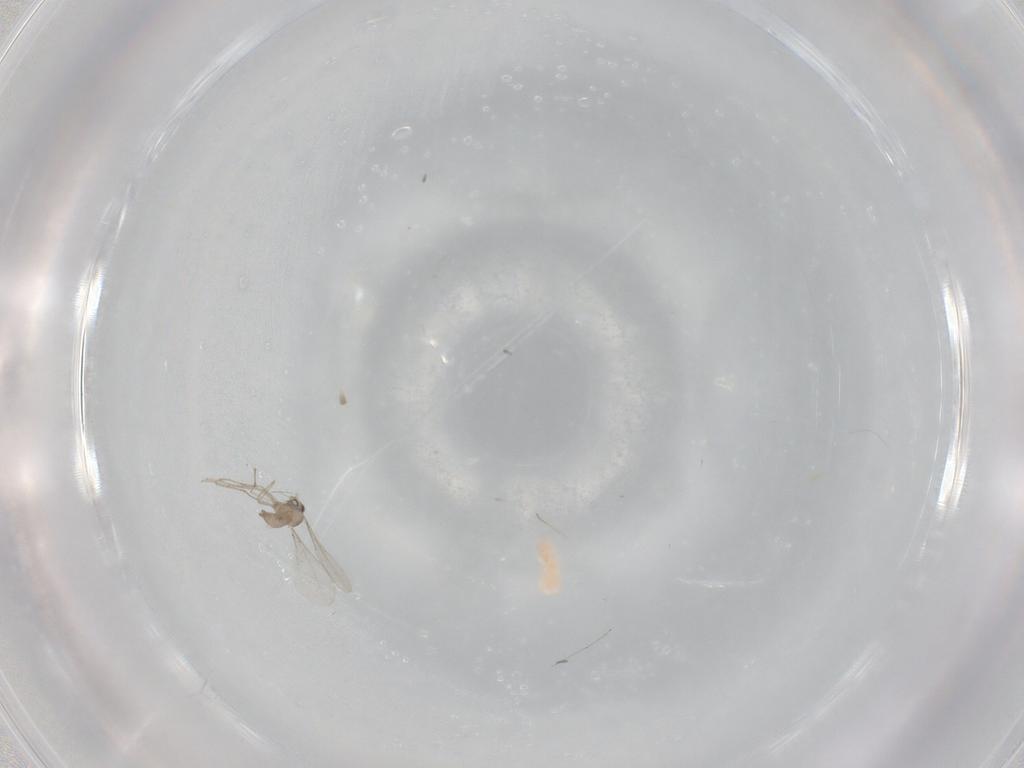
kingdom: Animalia
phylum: Arthropoda
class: Insecta
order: Diptera
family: Cecidomyiidae
